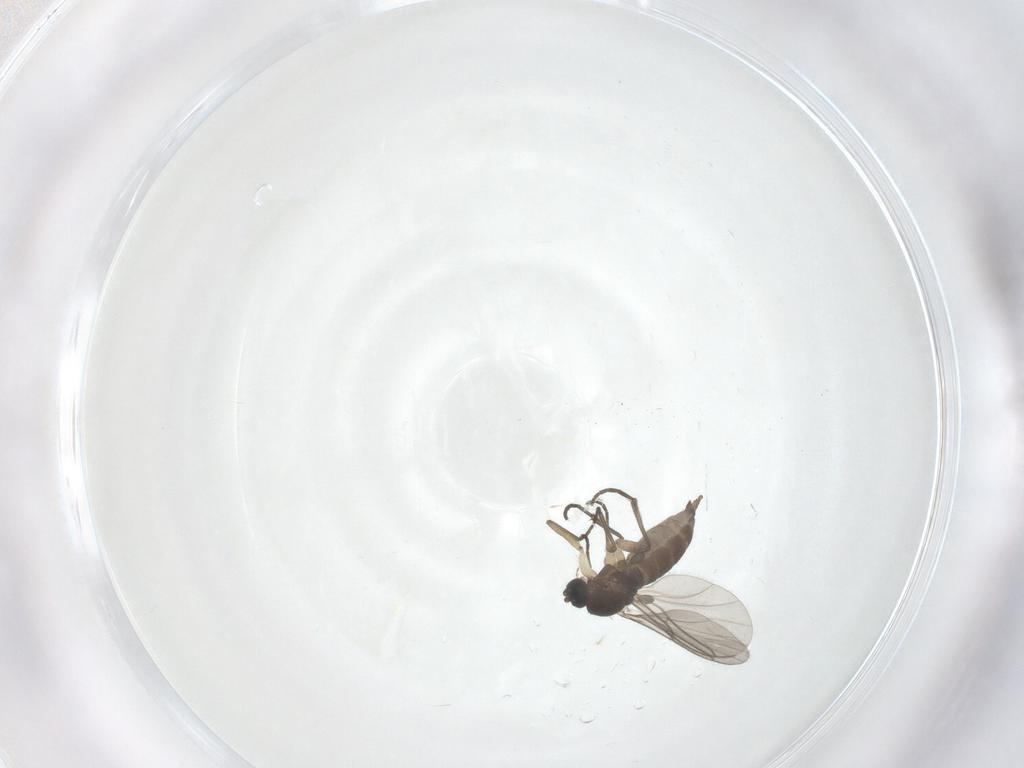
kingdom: Animalia
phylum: Arthropoda
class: Insecta
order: Diptera
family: Sciaridae
